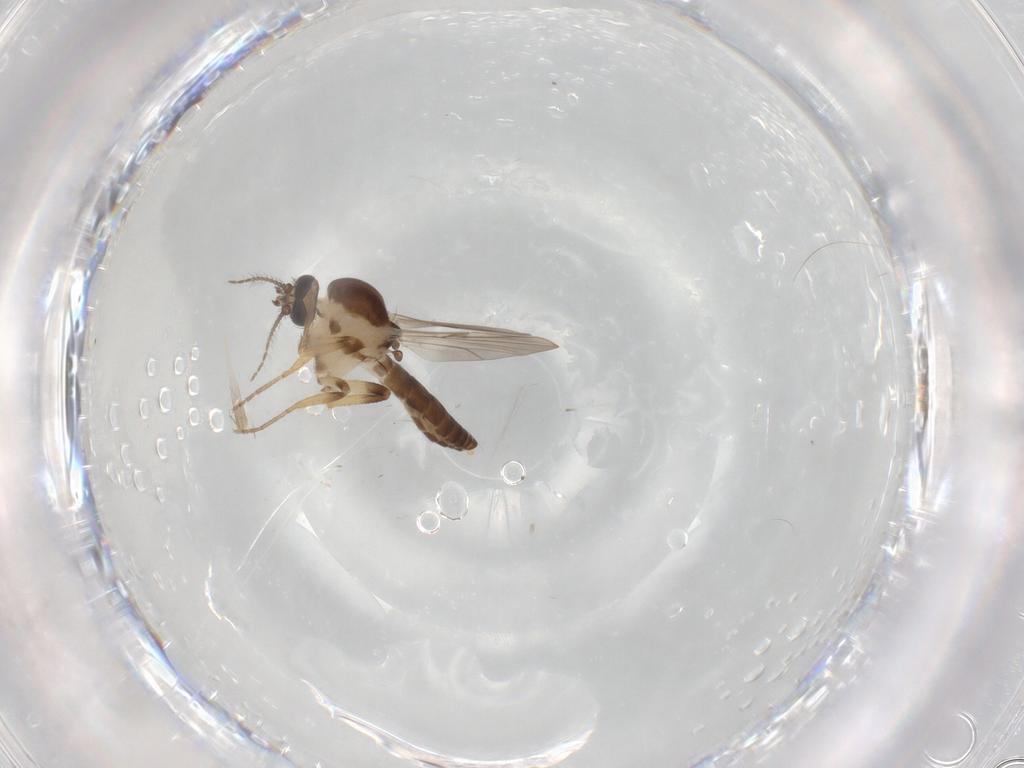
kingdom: Animalia
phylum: Arthropoda
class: Insecta
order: Diptera
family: Ceratopogonidae
